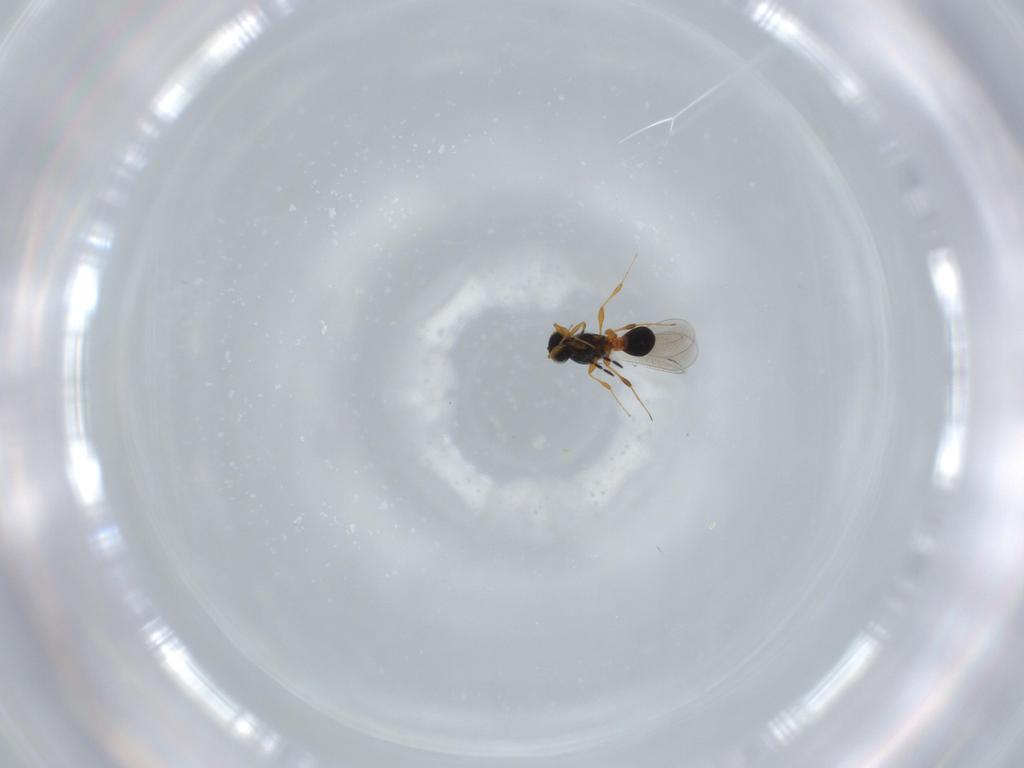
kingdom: Animalia
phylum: Arthropoda
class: Insecta
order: Hymenoptera
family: Platygastridae
